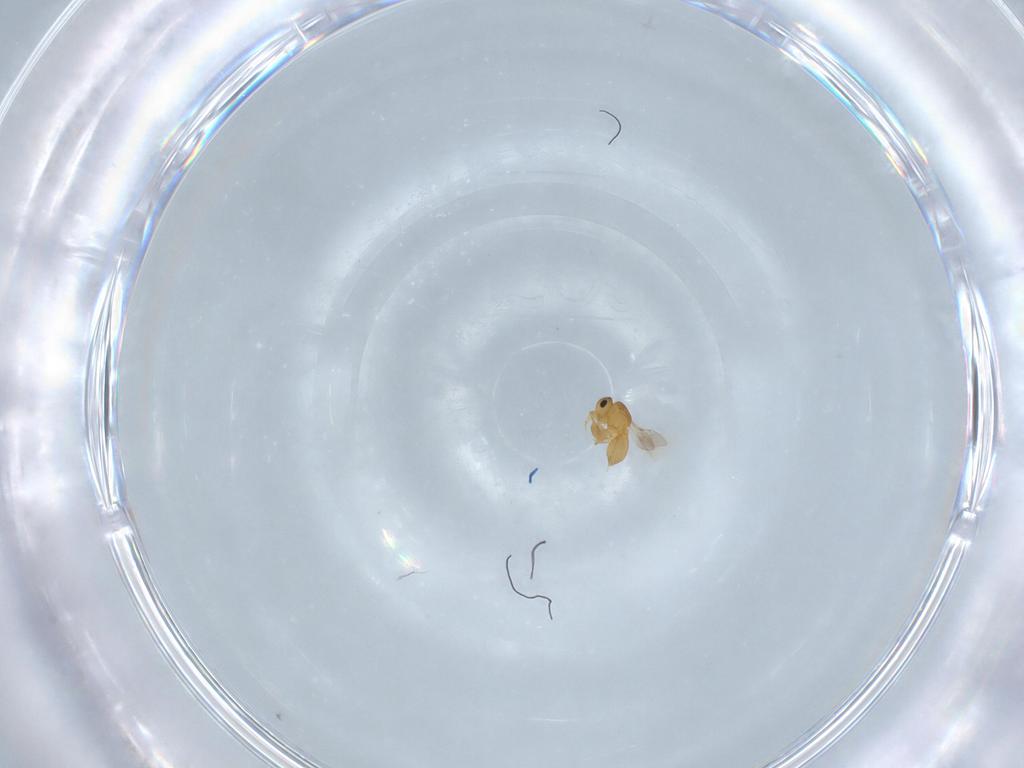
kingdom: Animalia
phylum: Arthropoda
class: Insecta
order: Hymenoptera
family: Scelionidae
